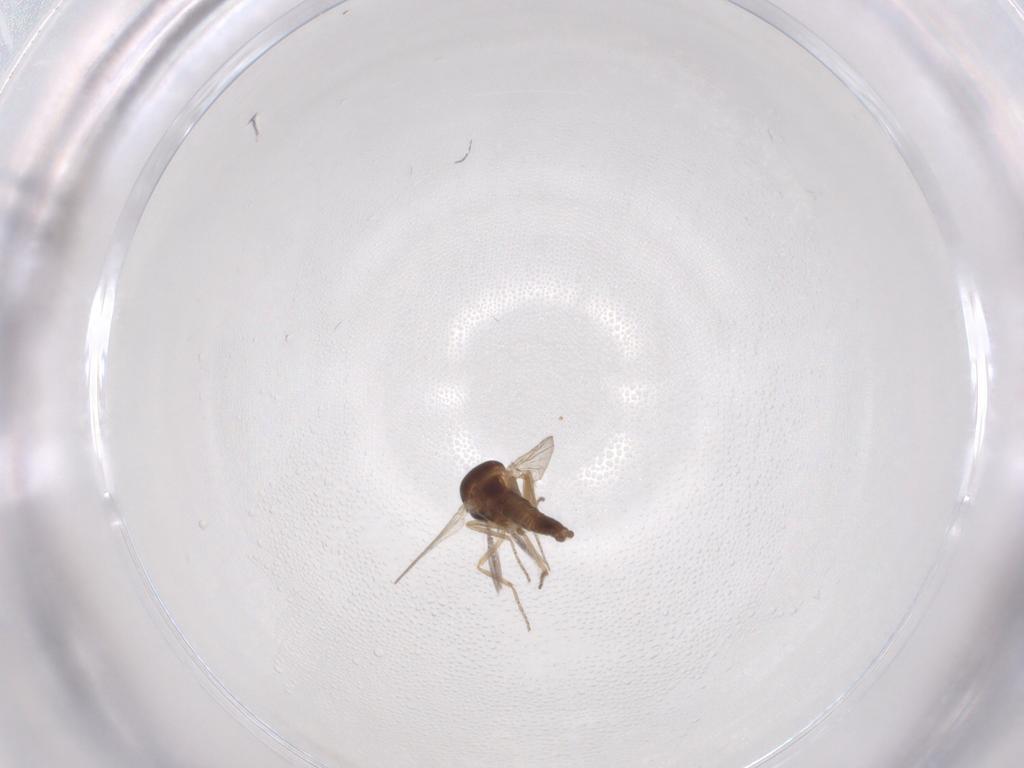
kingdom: Animalia
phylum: Arthropoda
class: Insecta
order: Diptera
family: Ceratopogonidae
